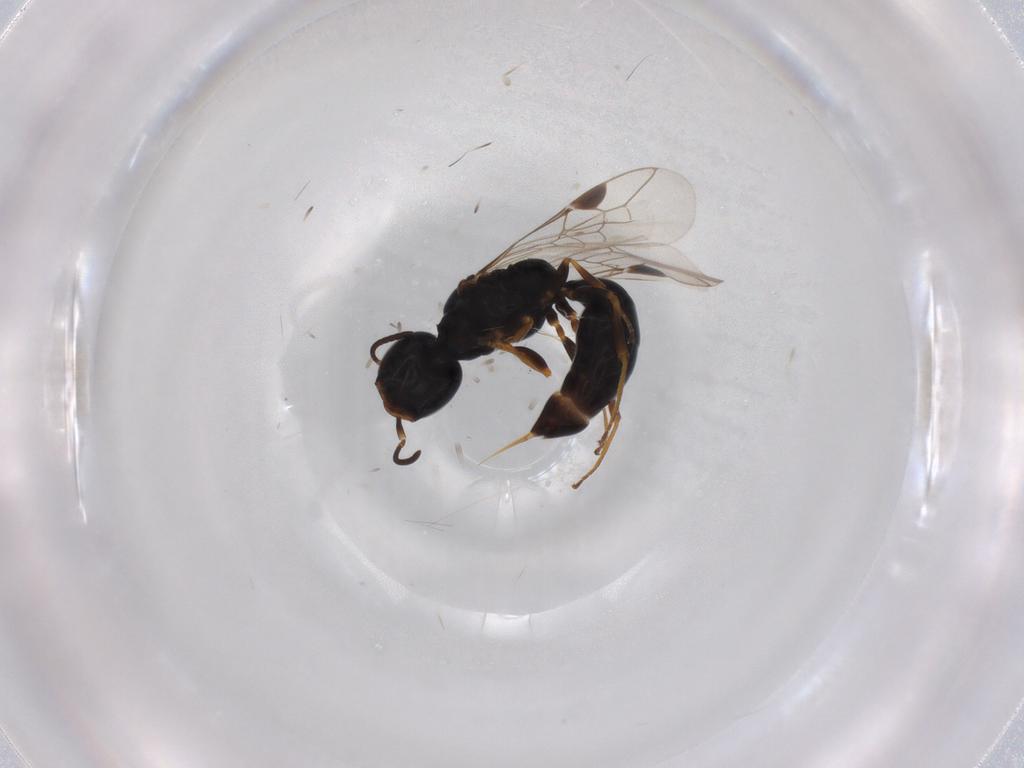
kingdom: Animalia
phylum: Arthropoda
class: Insecta
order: Hymenoptera
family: Pemphredonidae
